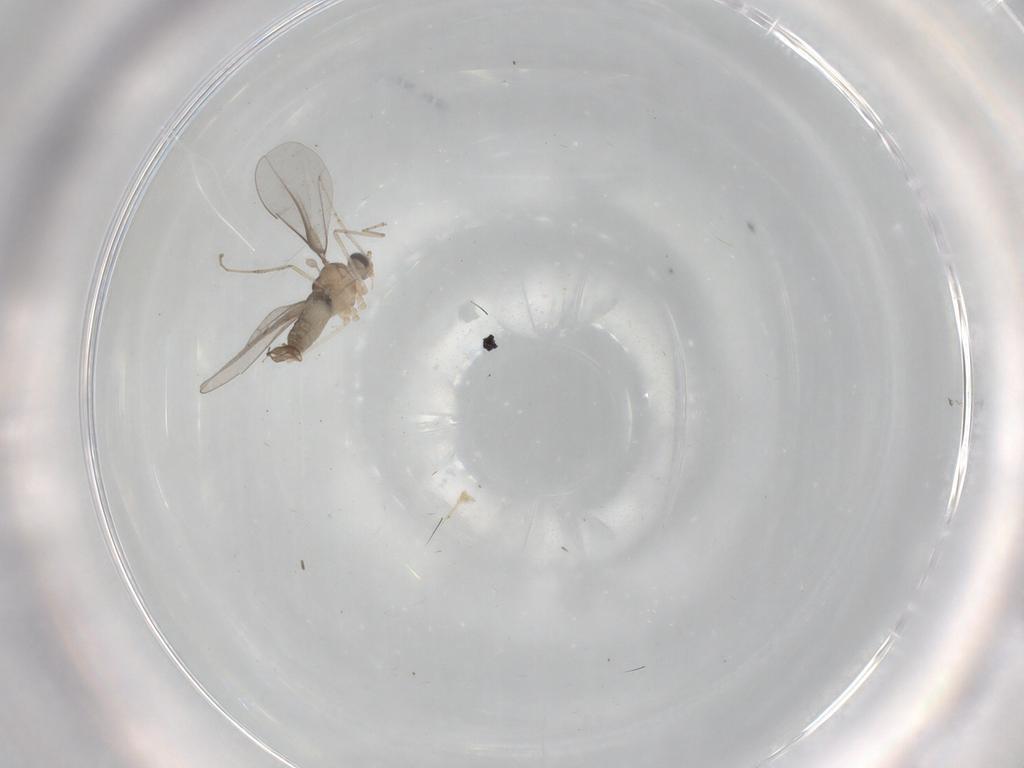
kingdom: Animalia
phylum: Arthropoda
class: Insecta
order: Diptera
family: Cecidomyiidae
